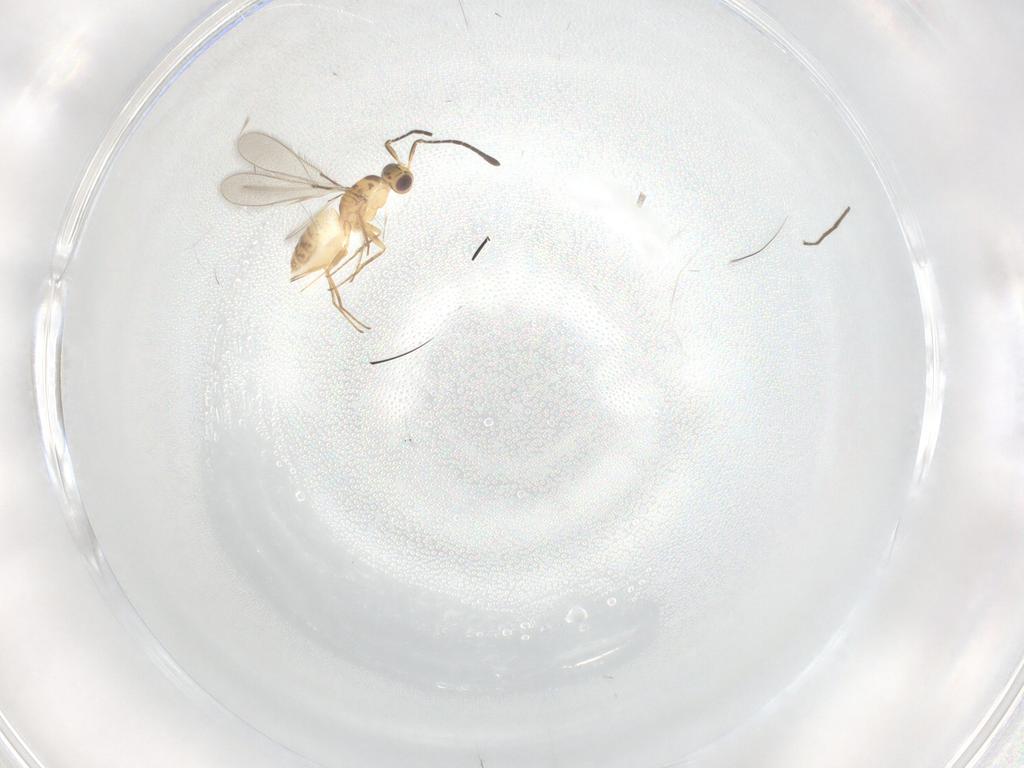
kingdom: Animalia
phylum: Arthropoda
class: Insecta
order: Hymenoptera
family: Mymaridae
